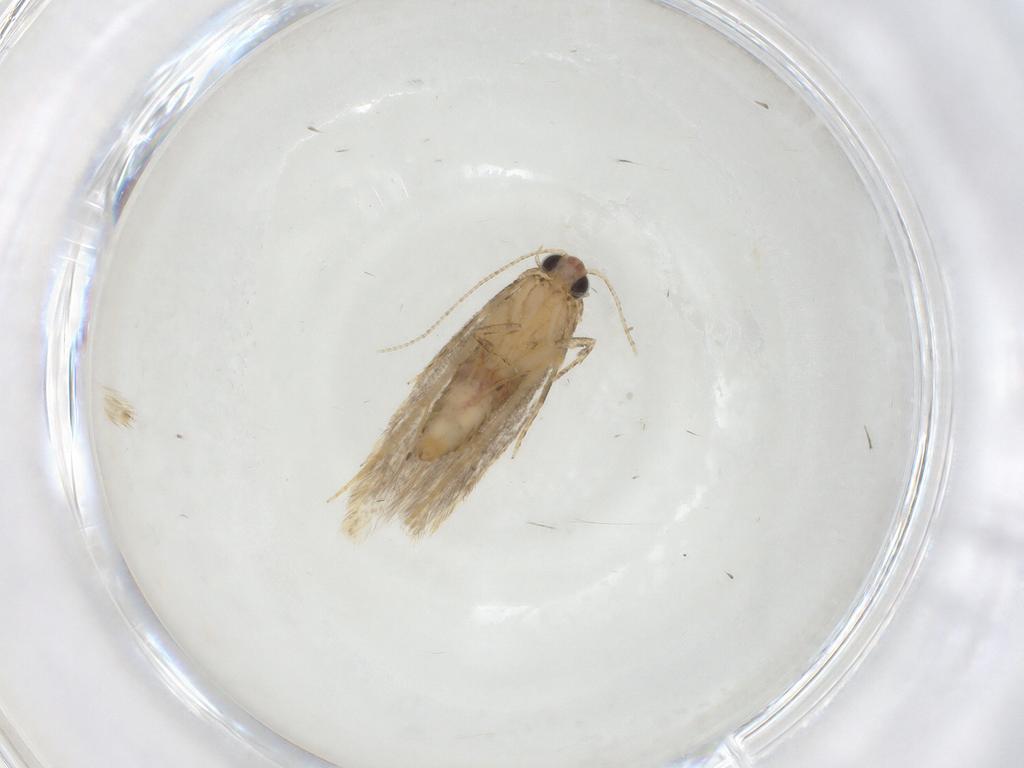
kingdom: Animalia
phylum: Arthropoda
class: Insecta
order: Lepidoptera
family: Tineidae
